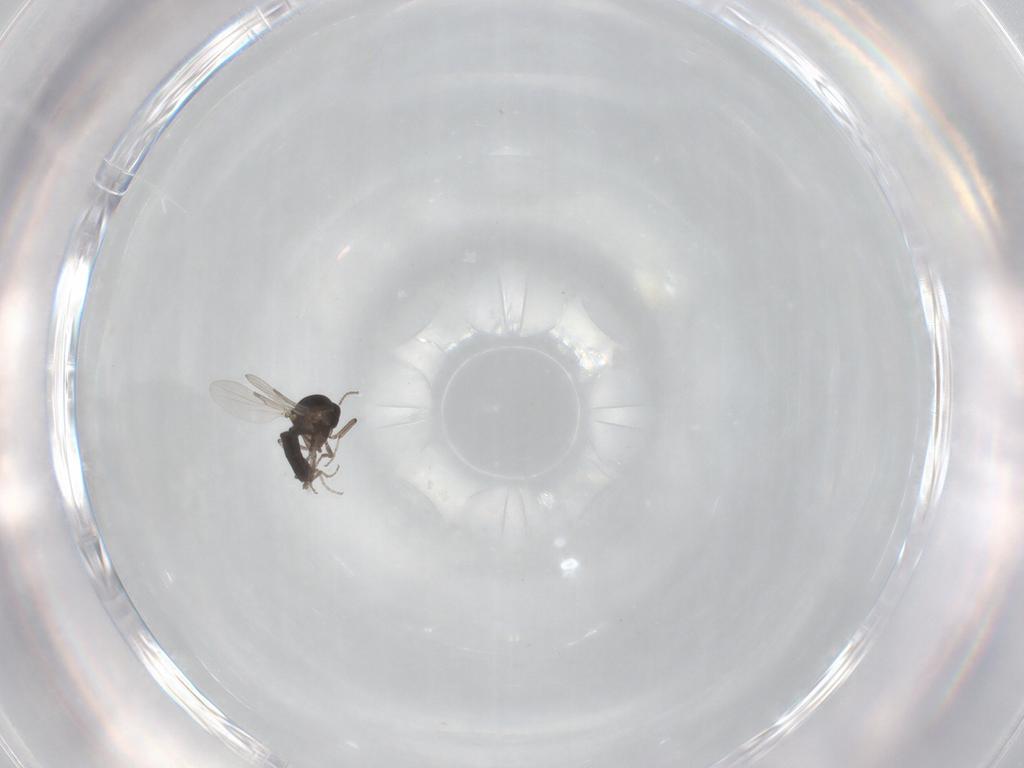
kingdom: Animalia
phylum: Arthropoda
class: Insecta
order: Diptera
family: Ceratopogonidae
